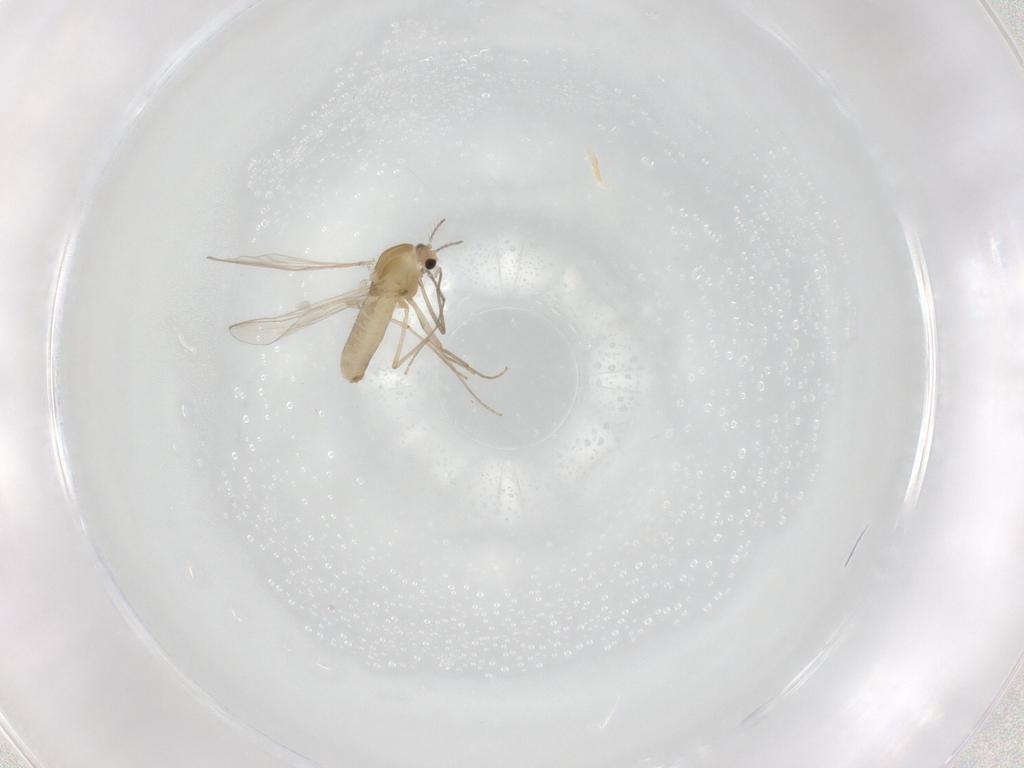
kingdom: Animalia
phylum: Arthropoda
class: Insecta
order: Diptera
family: Chironomidae
